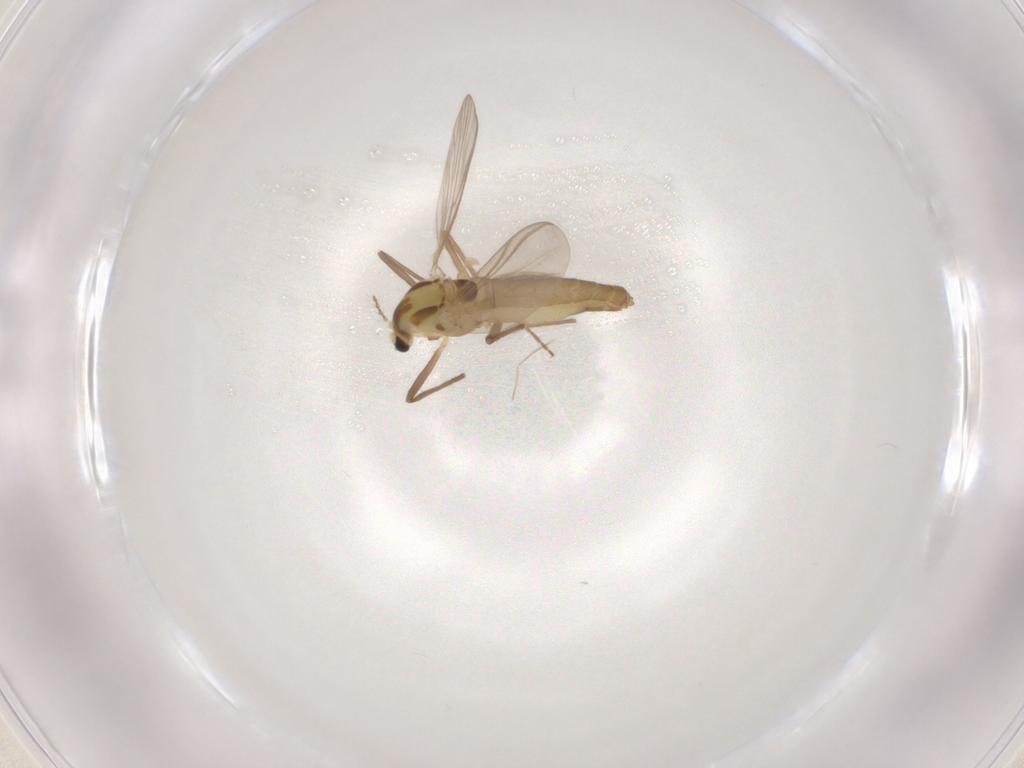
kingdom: Animalia
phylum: Arthropoda
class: Insecta
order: Diptera
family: Chironomidae
